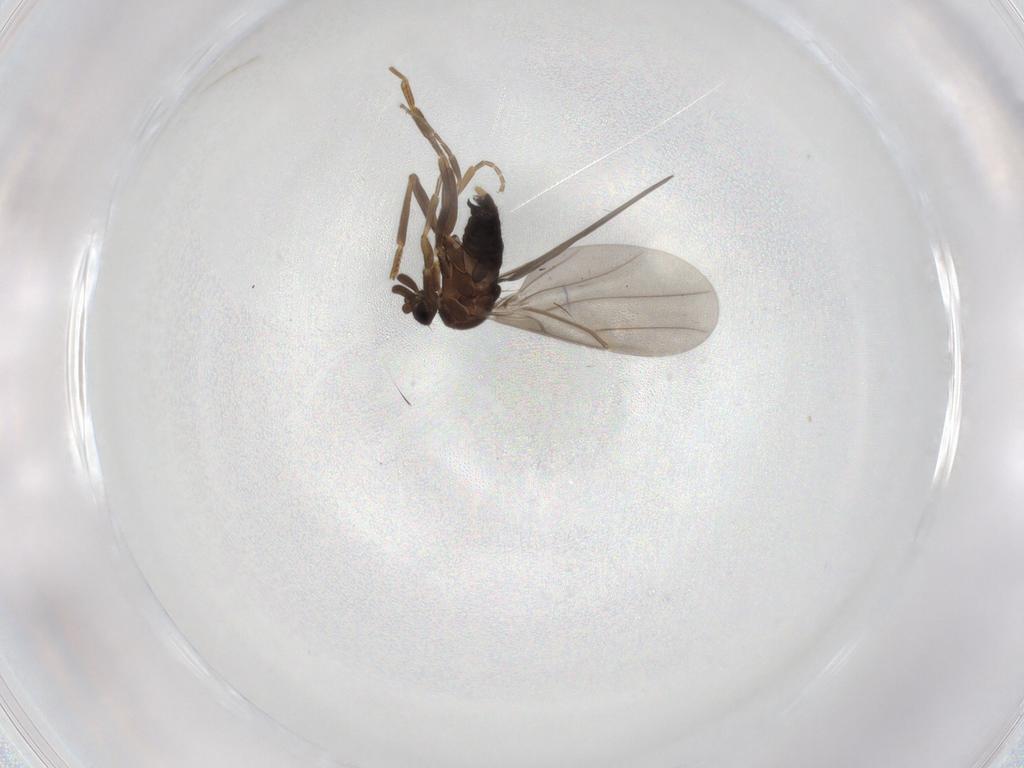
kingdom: Animalia
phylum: Arthropoda
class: Insecta
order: Diptera
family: Phoridae
